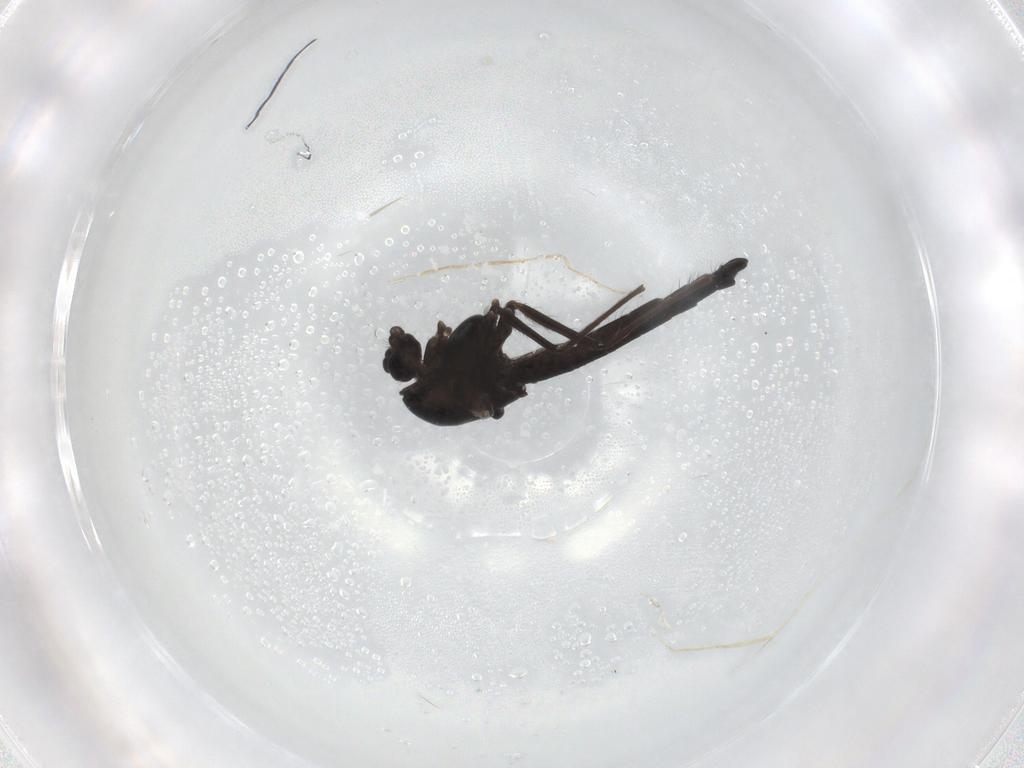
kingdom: Animalia
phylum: Arthropoda
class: Insecta
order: Diptera
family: Chironomidae
